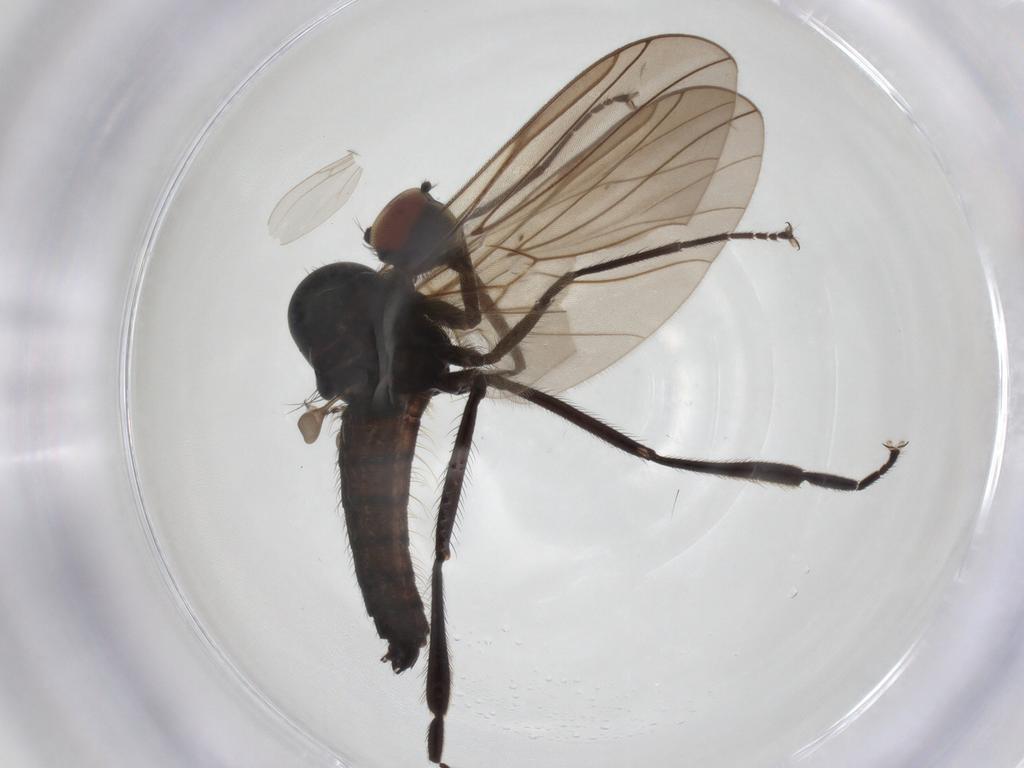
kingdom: Animalia
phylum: Arthropoda
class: Insecta
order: Diptera
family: Hybotidae
